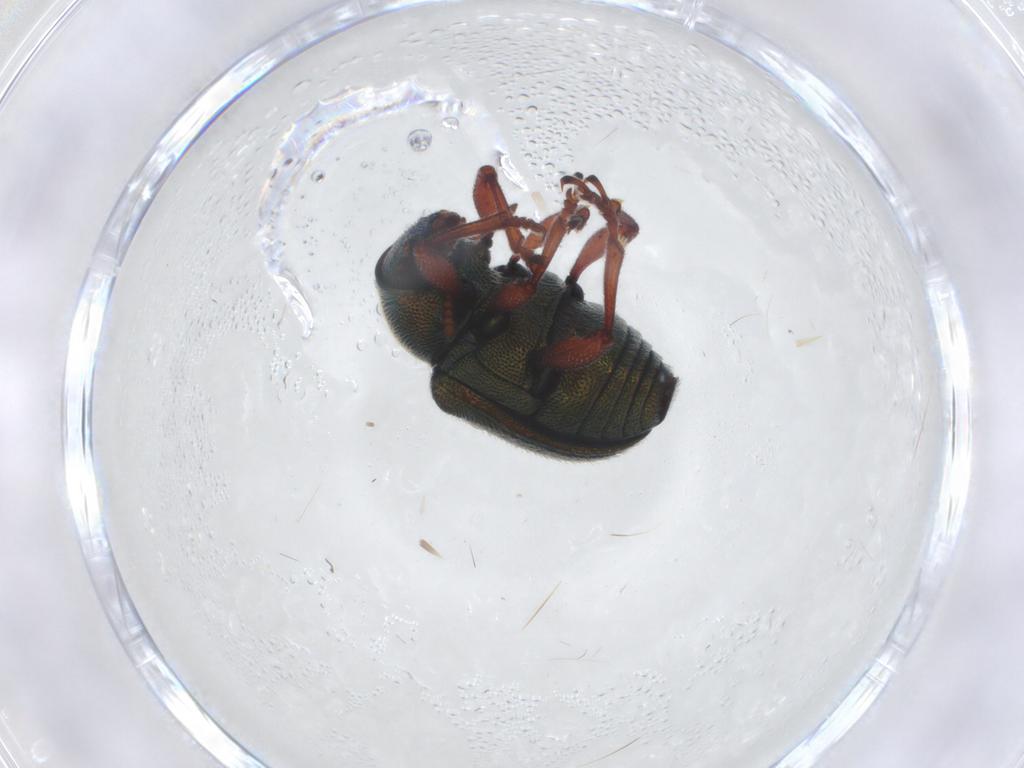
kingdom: Animalia
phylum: Arthropoda
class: Insecta
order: Coleoptera
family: Chrysomelidae
